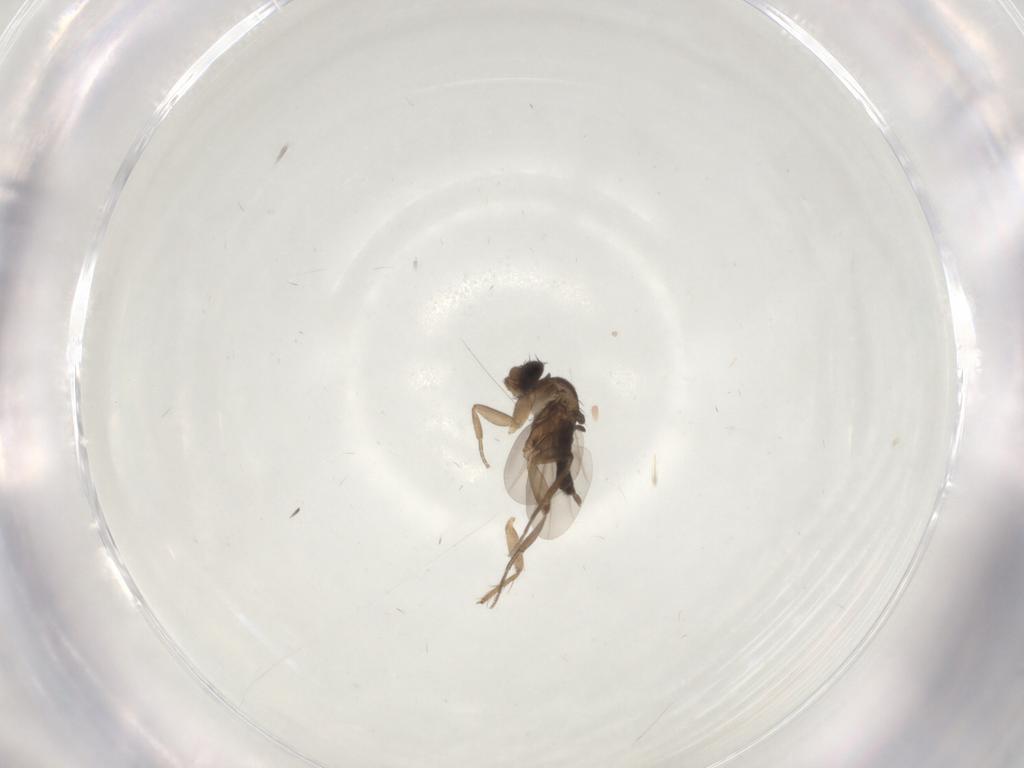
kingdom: Animalia
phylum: Arthropoda
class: Insecta
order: Diptera
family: Phoridae
